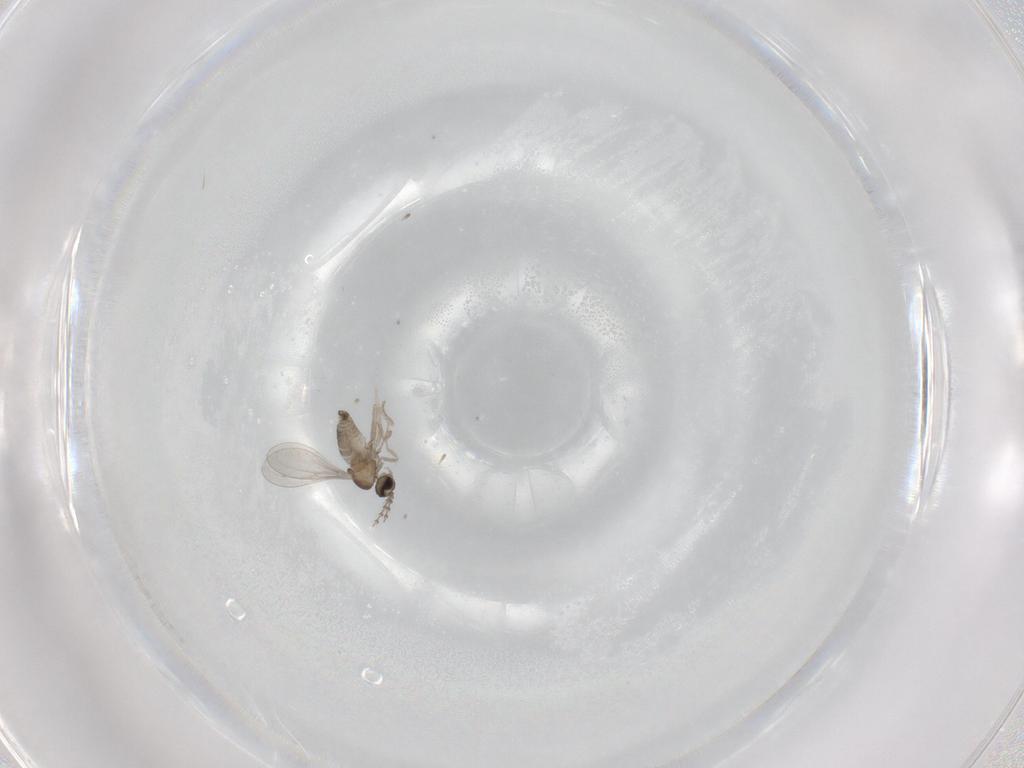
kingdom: Animalia
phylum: Arthropoda
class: Insecta
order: Diptera
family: Cecidomyiidae
